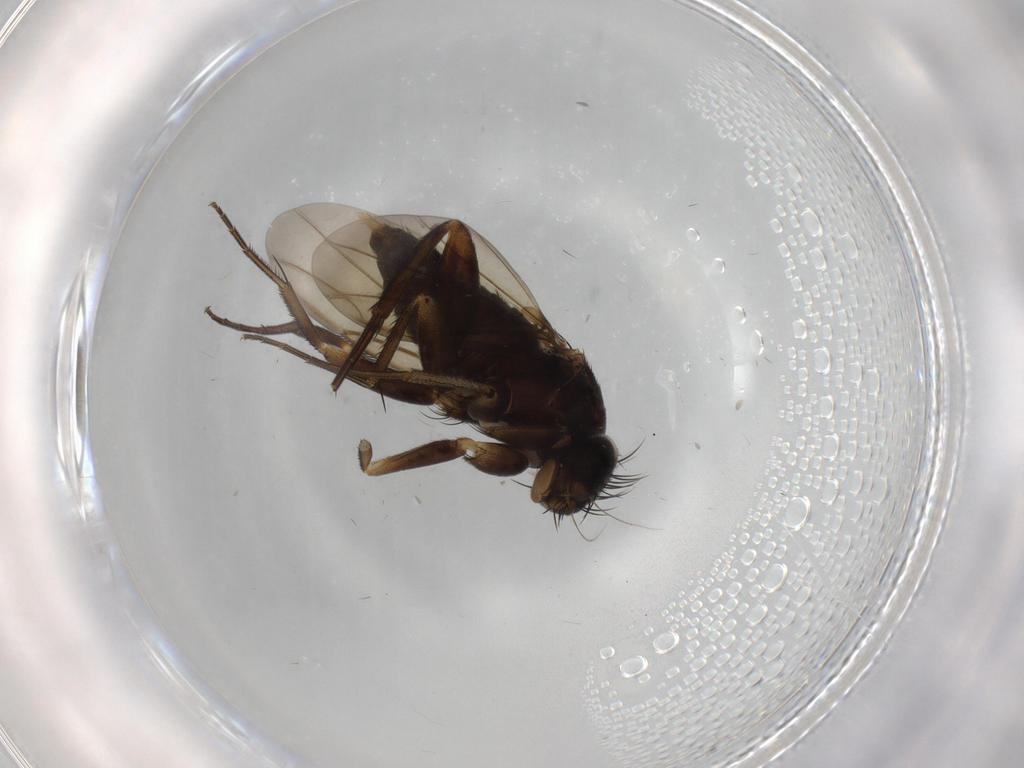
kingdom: Animalia
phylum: Arthropoda
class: Insecta
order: Diptera
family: Phoridae
